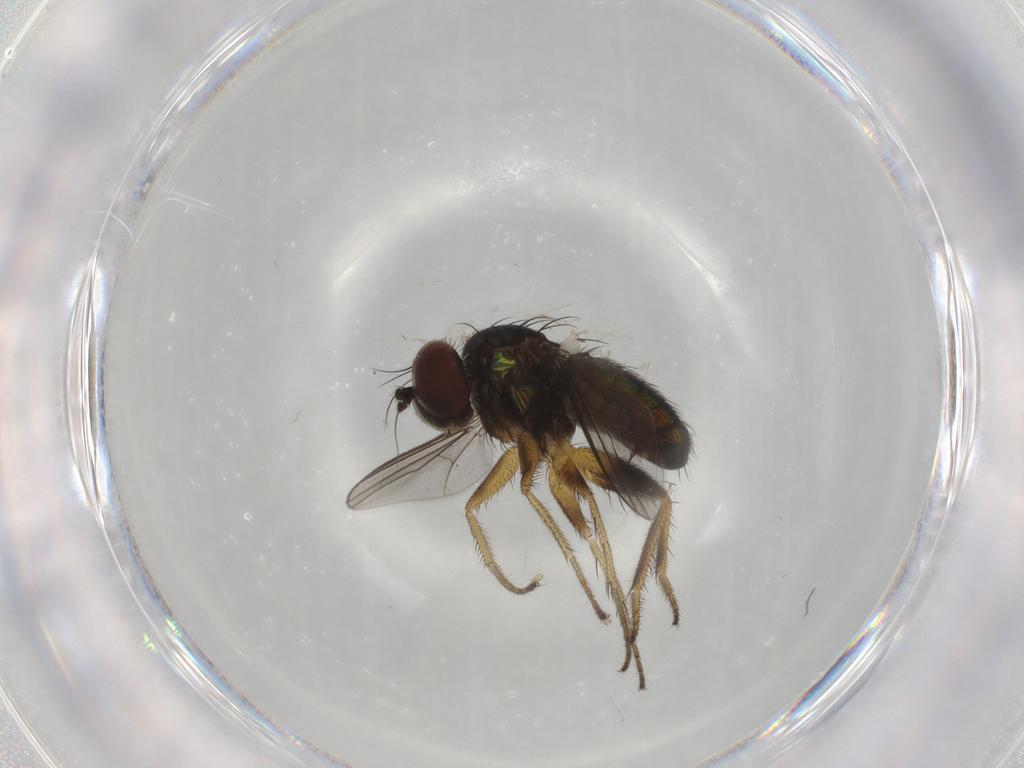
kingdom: Animalia
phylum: Arthropoda
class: Insecta
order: Diptera
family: Dolichopodidae
